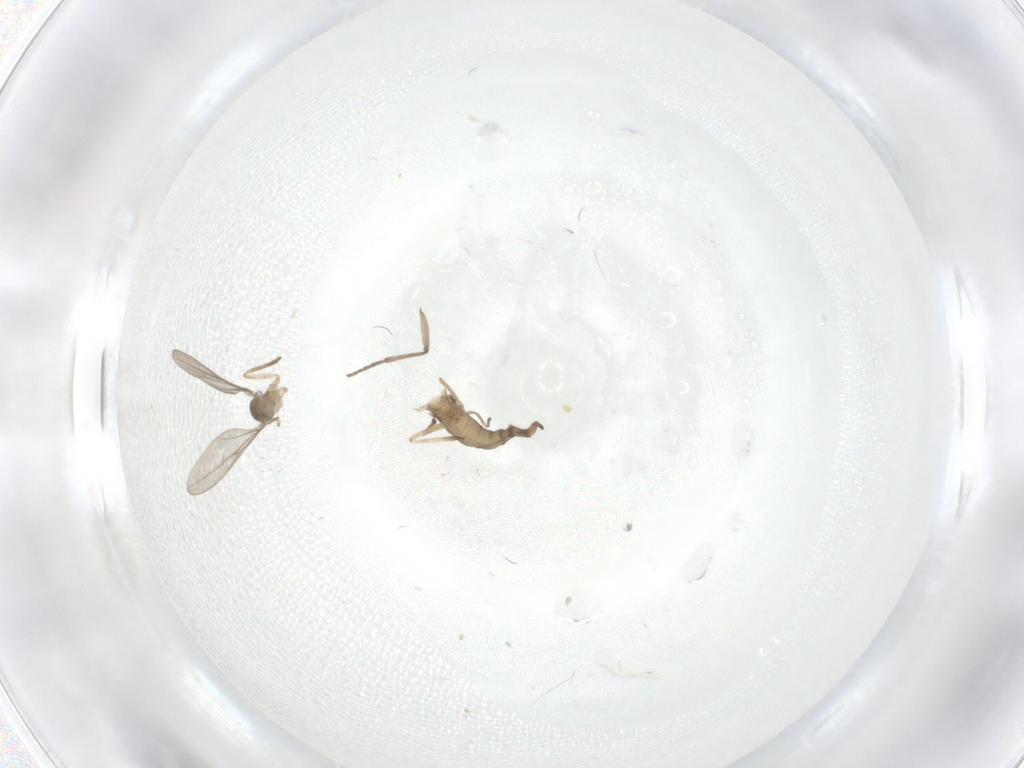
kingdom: Animalia
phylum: Arthropoda
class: Insecta
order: Diptera
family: Sciaridae
